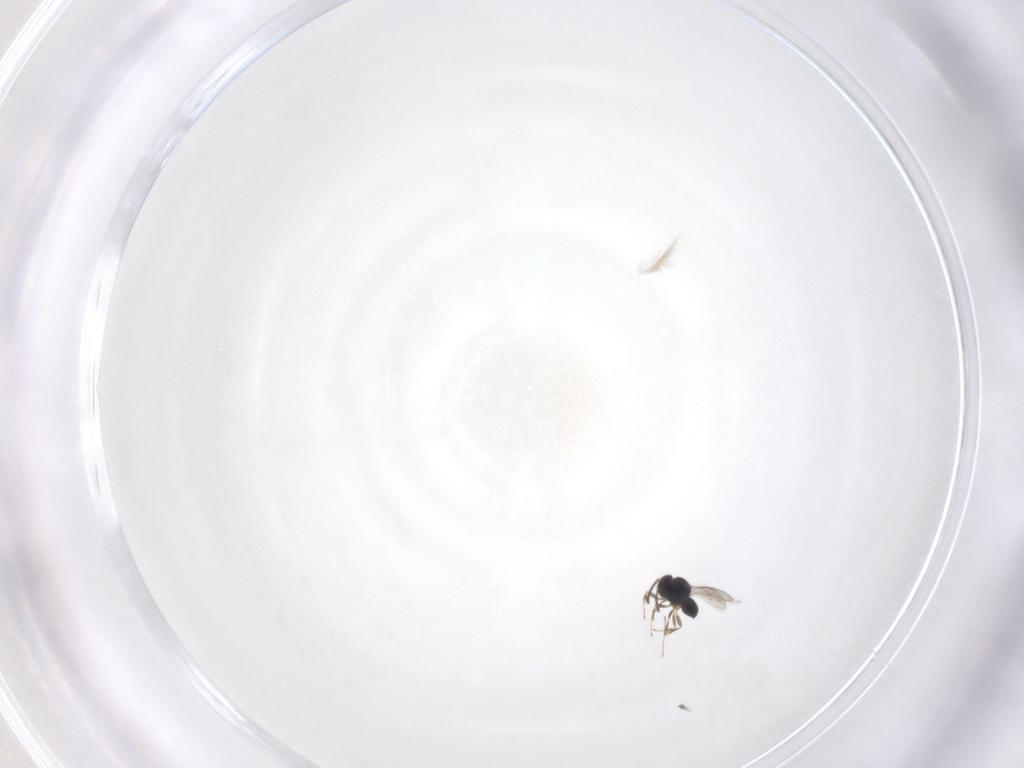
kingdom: Animalia
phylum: Arthropoda
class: Insecta
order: Hymenoptera
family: Scelionidae
